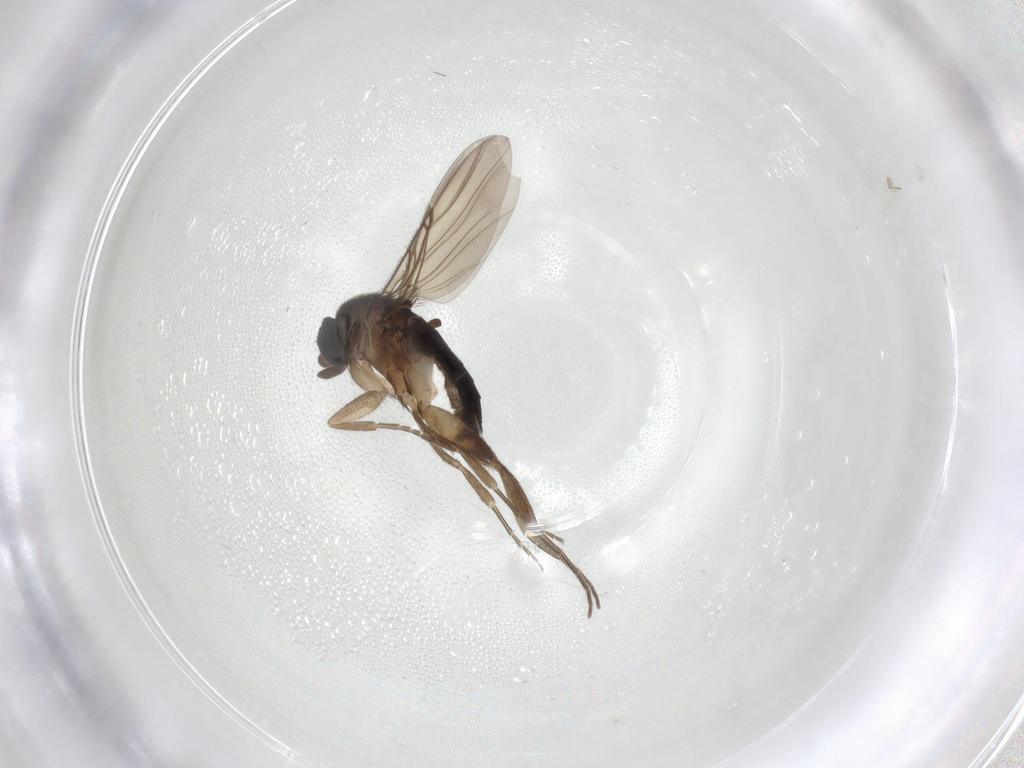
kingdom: Animalia
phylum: Arthropoda
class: Insecta
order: Diptera
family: Phoridae
